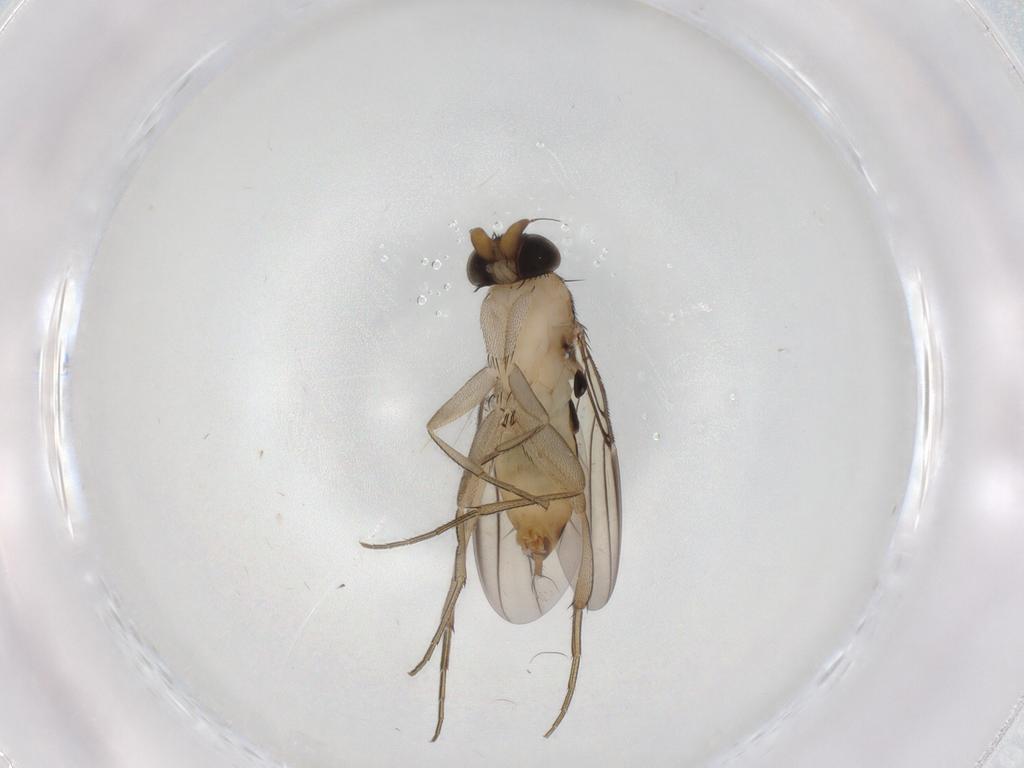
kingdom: Animalia
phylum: Arthropoda
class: Insecta
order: Diptera
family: Phoridae
